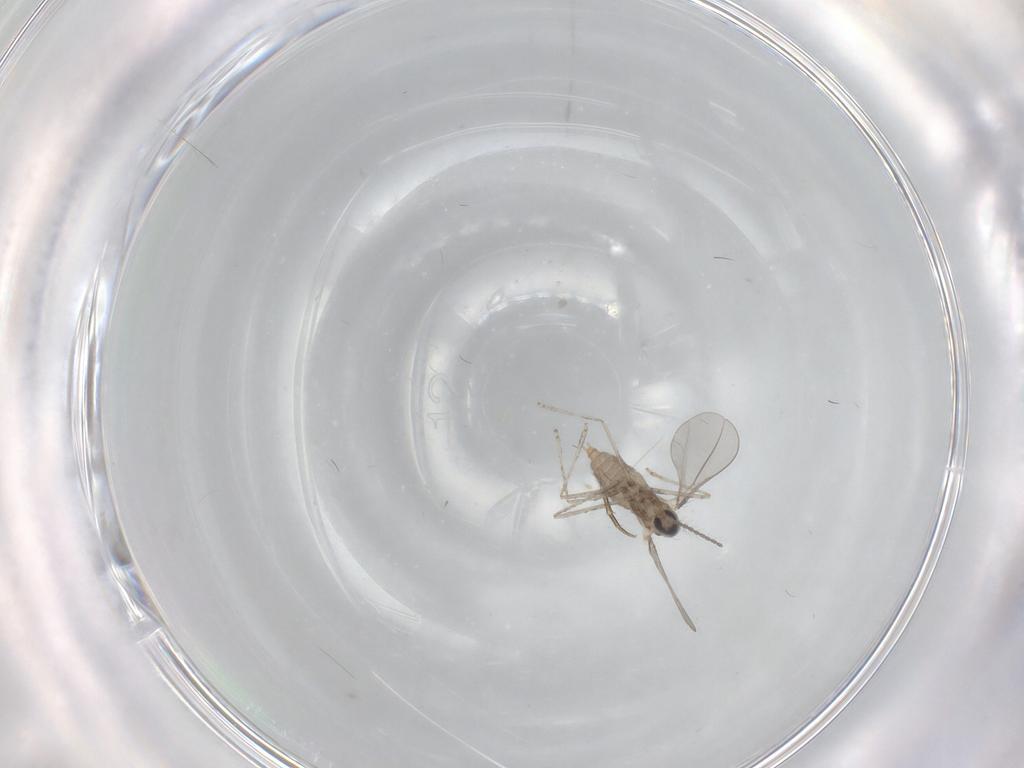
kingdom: Animalia
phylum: Arthropoda
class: Insecta
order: Diptera
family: Cecidomyiidae
